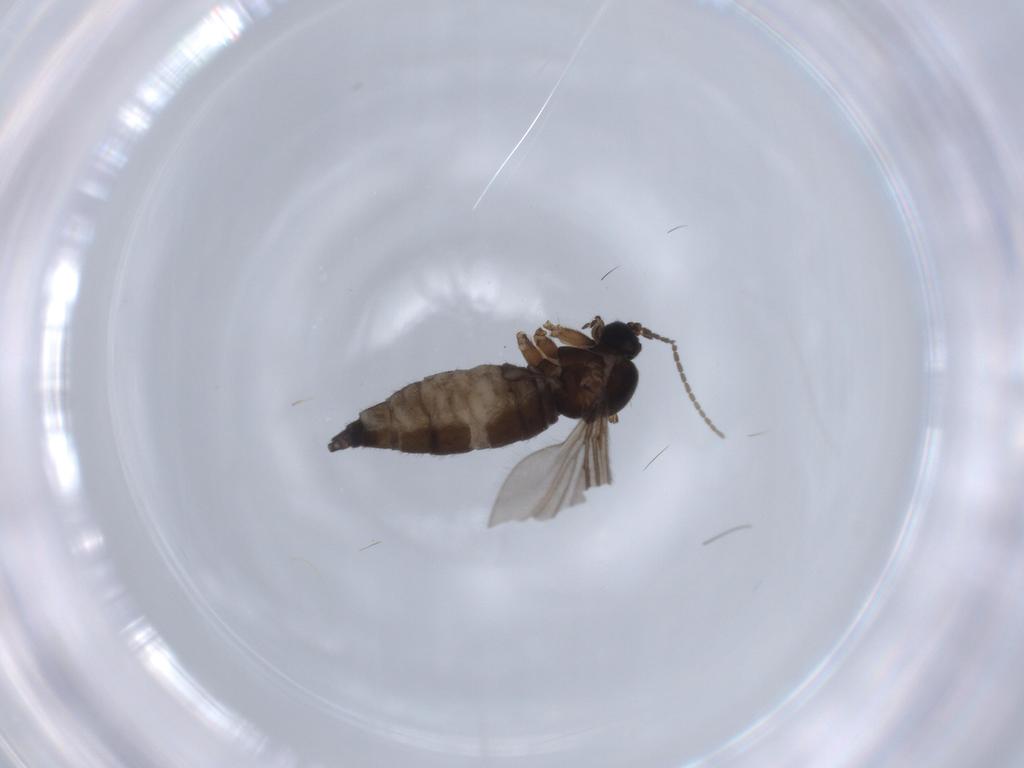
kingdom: Animalia
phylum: Arthropoda
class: Insecta
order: Diptera
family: Sciaridae
